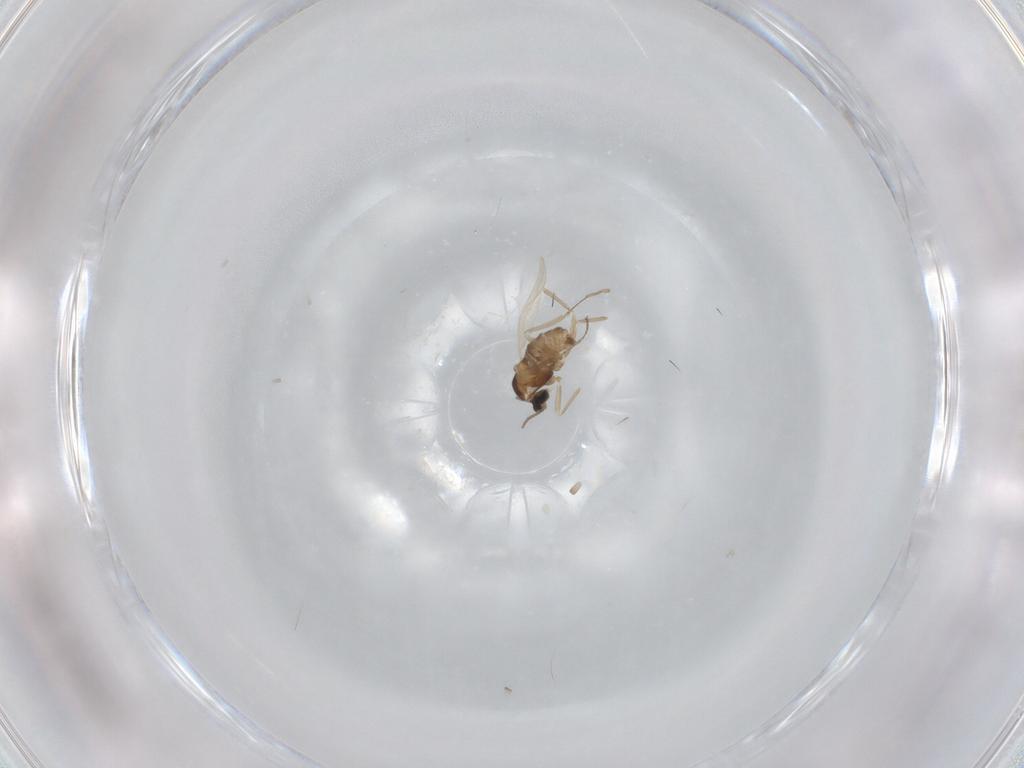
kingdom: Animalia
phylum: Arthropoda
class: Insecta
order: Diptera
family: Cecidomyiidae
